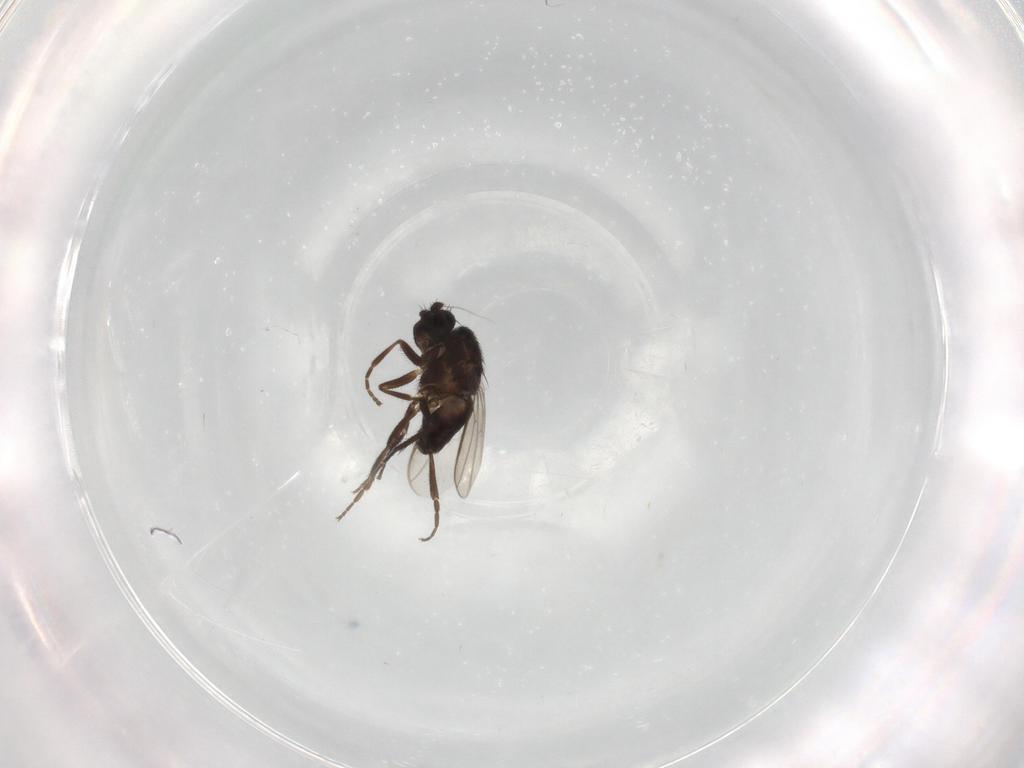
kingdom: Animalia
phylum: Arthropoda
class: Insecta
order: Diptera
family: Sphaeroceridae
